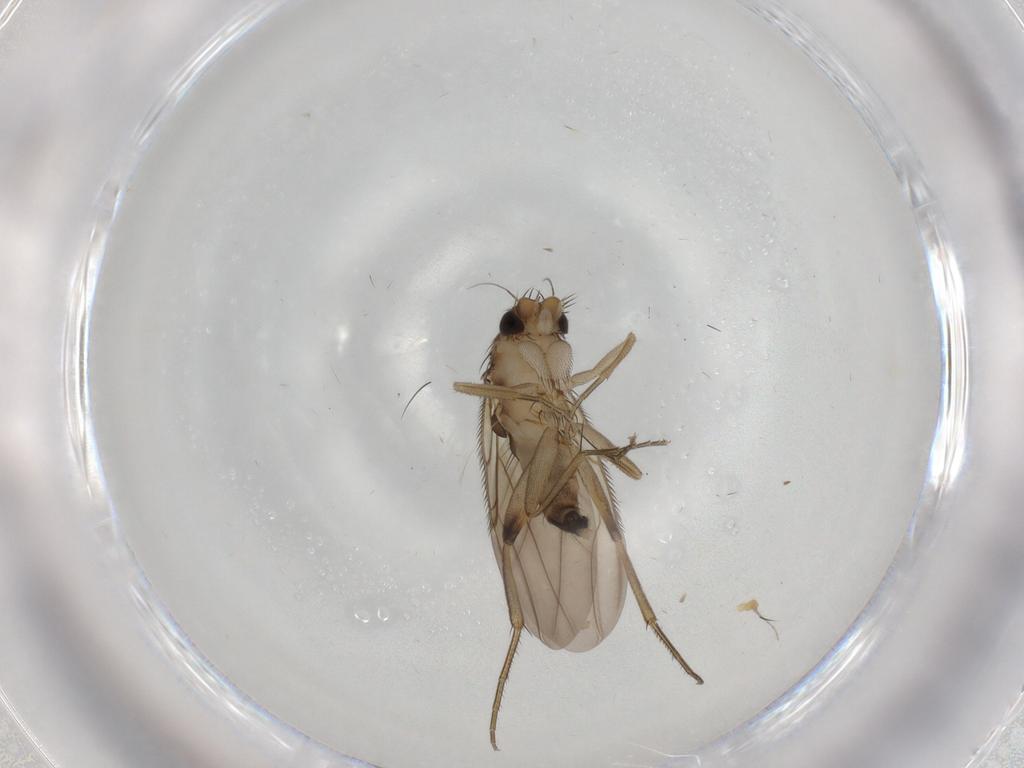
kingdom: Animalia
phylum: Arthropoda
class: Insecta
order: Diptera
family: Phoridae
